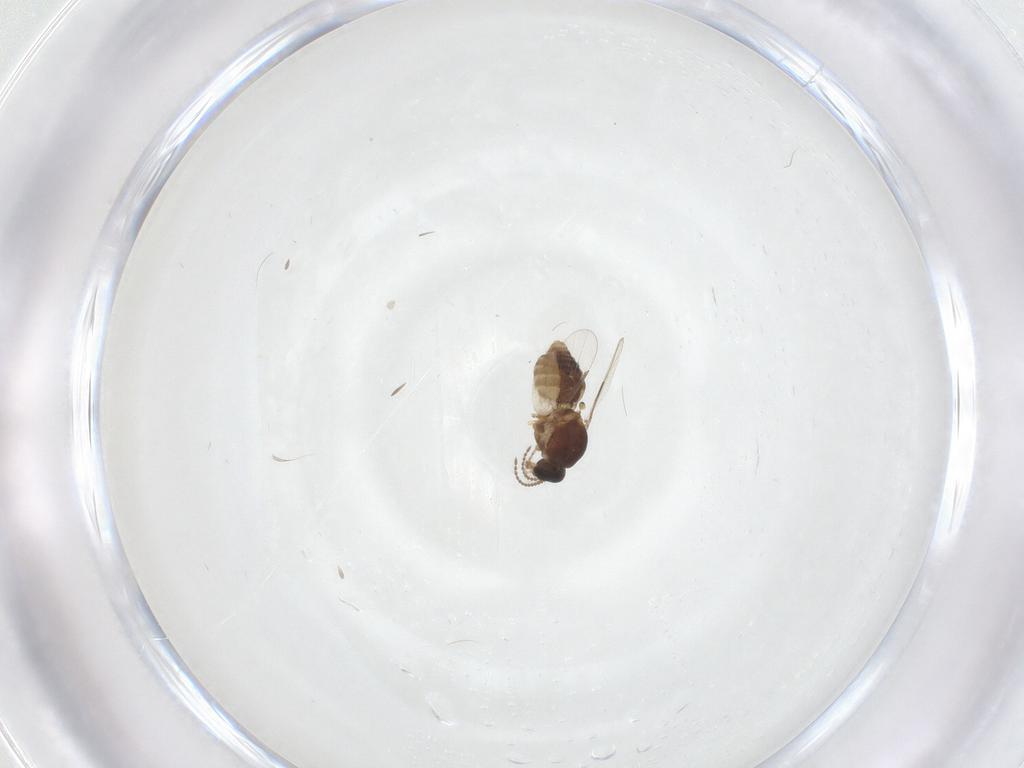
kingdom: Animalia
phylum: Arthropoda
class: Insecta
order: Diptera
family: Ceratopogonidae
